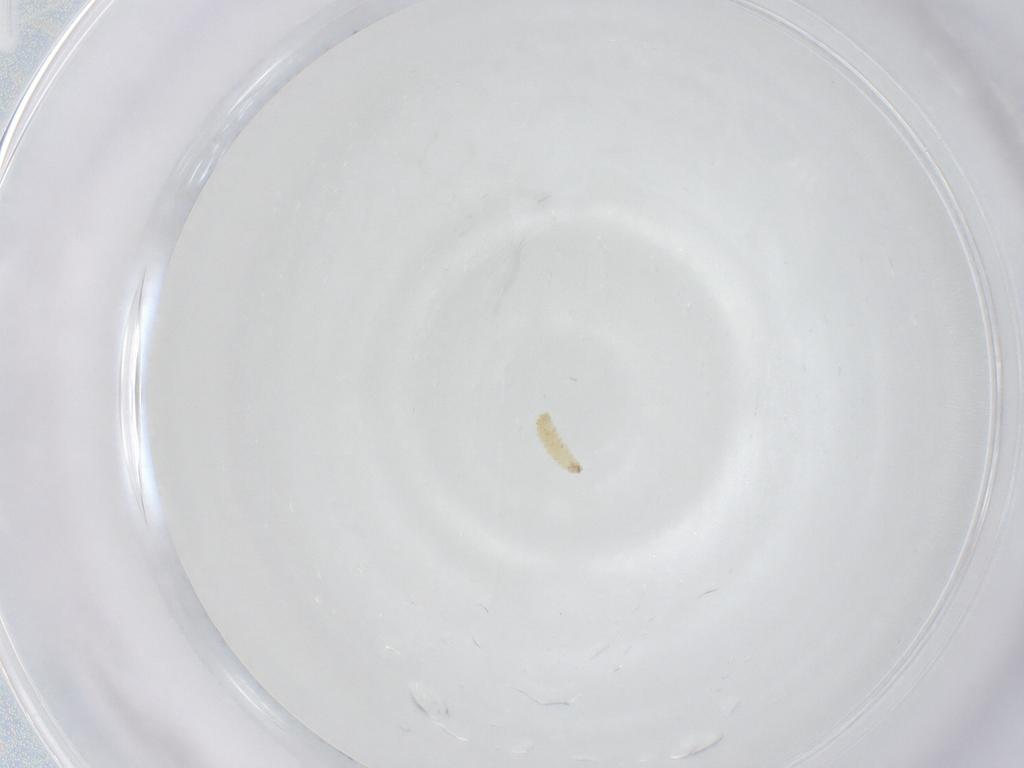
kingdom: Animalia
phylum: Arthropoda
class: Insecta
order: Diptera
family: Sarcophagidae
